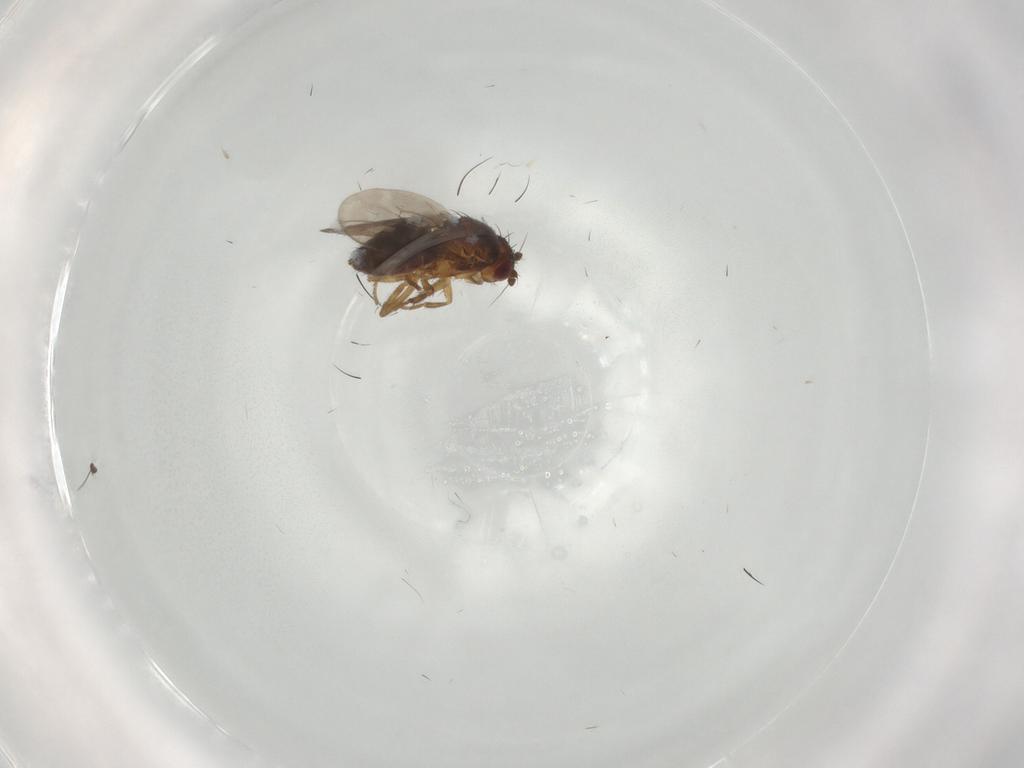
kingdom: Animalia
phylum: Arthropoda
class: Insecta
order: Diptera
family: Sphaeroceridae
